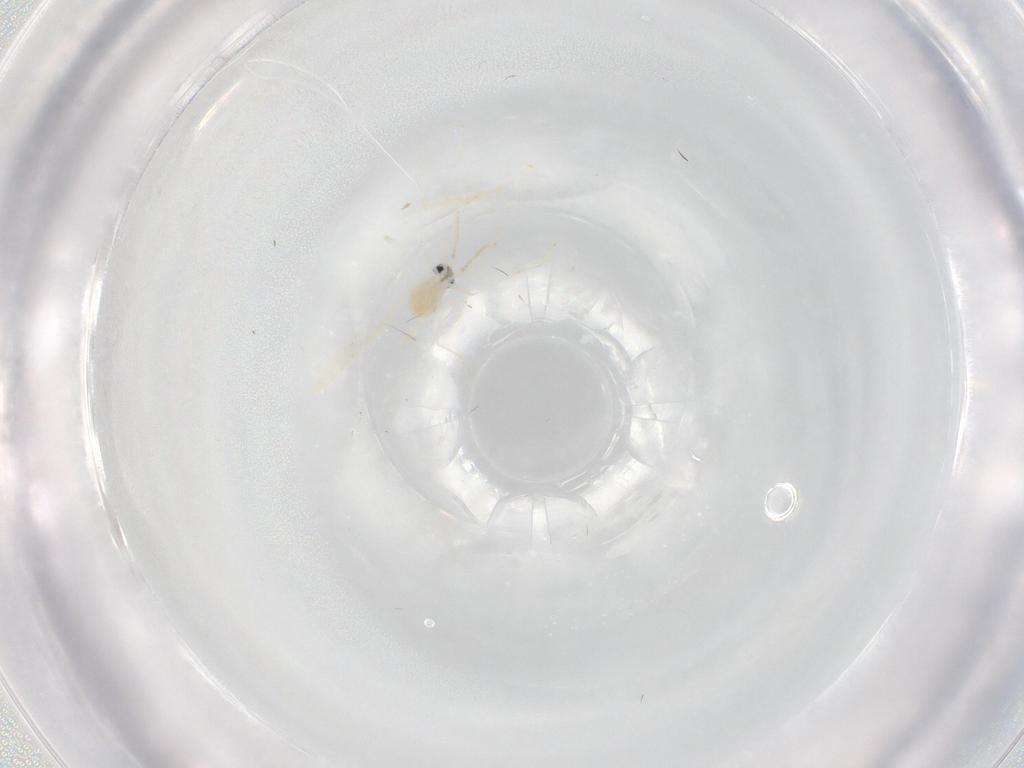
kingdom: Animalia
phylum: Arthropoda
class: Insecta
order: Diptera
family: Cecidomyiidae
